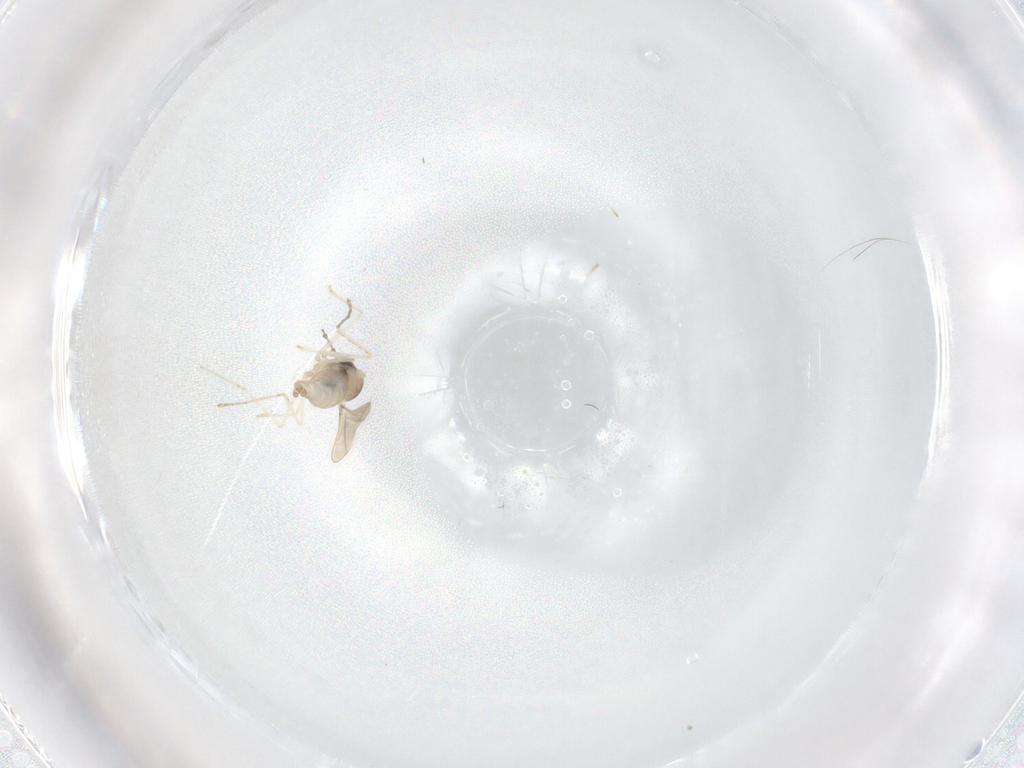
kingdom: Animalia
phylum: Arthropoda
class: Insecta
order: Diptera
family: Cecidomyiidae
